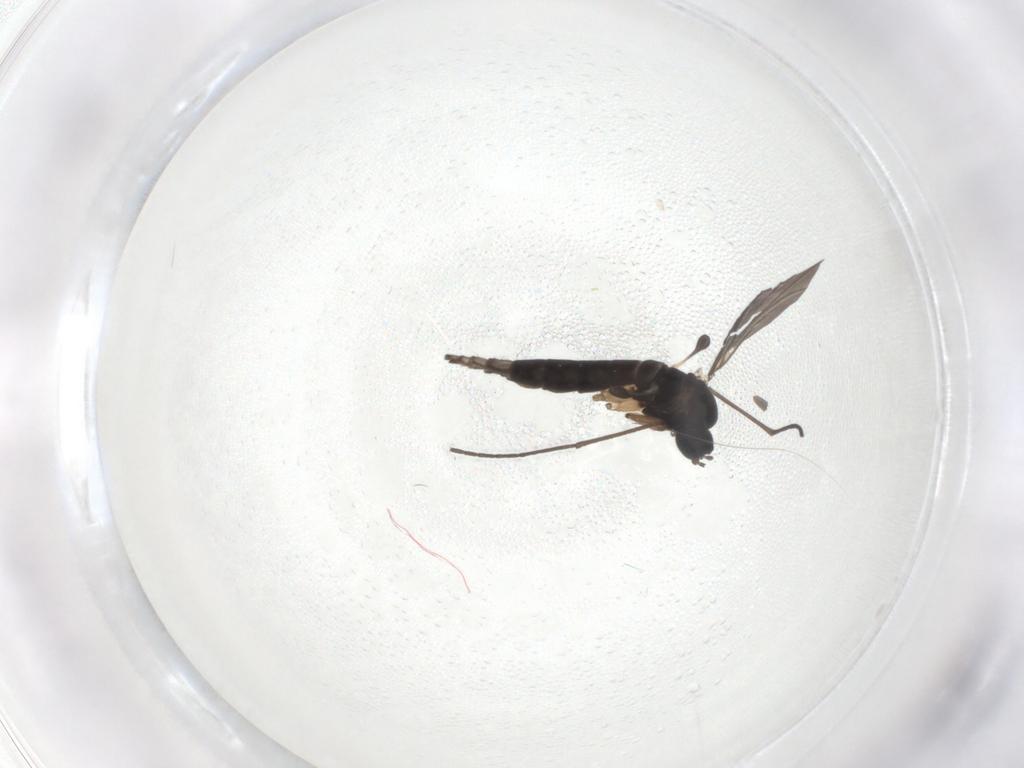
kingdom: Animalia
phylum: Arthropoda
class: Insecta
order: Diptera
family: Sciaridae
